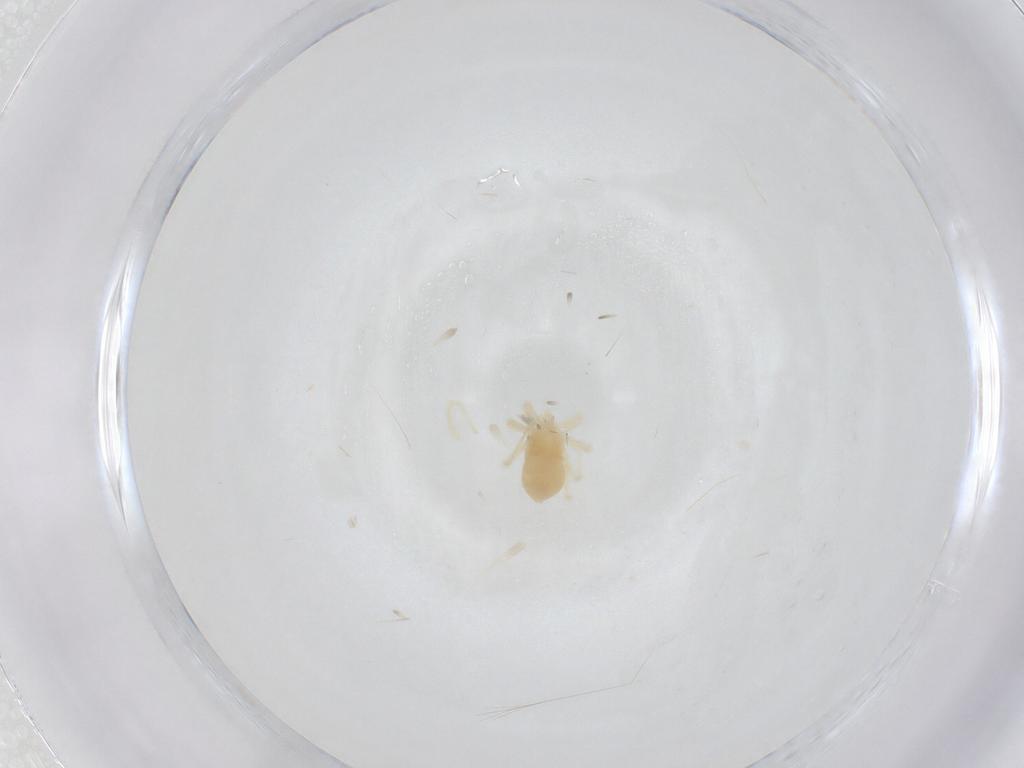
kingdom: Animalia
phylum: Arthropoda
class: Arachnida
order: Trombidiformes
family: Anystidae
